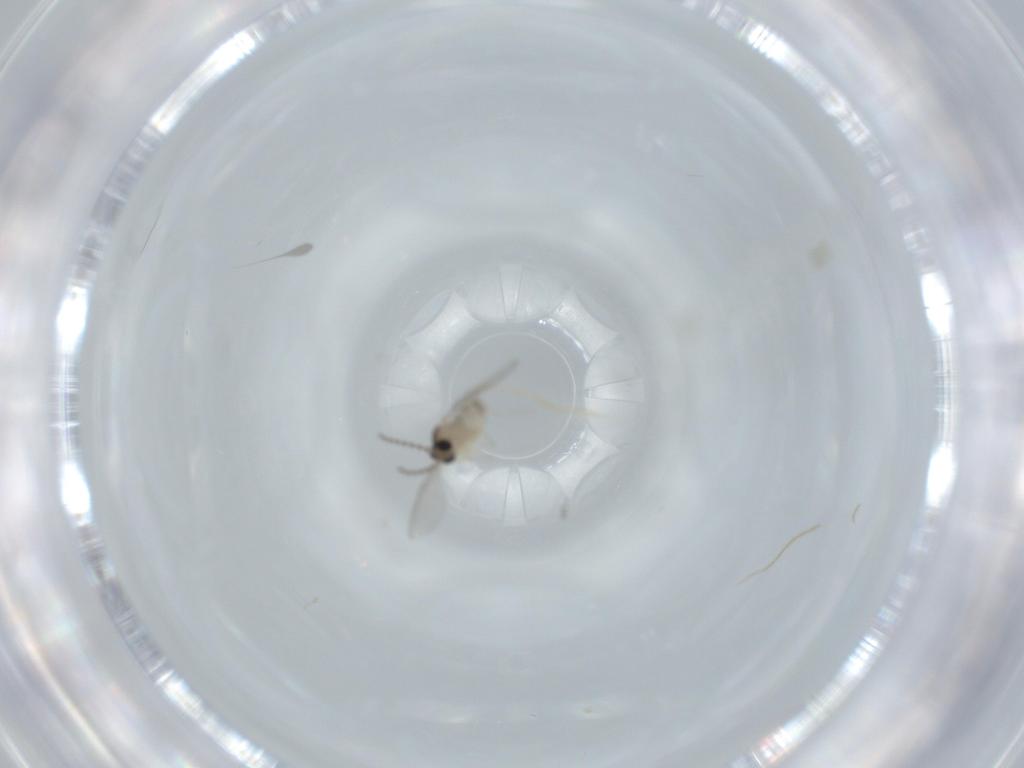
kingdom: Animalia
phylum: Arthropoda
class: Insecta
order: Diptera
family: Cecidomyiidae
